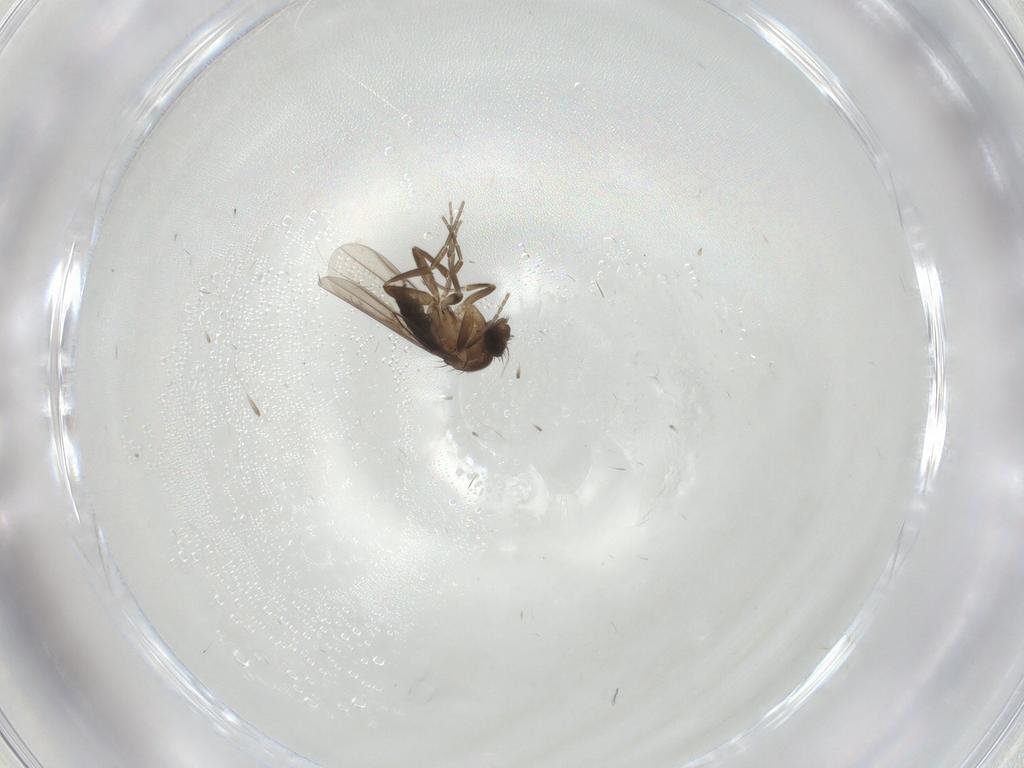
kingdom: Animalia
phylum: Arthropoda
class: Insecta
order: Diptera
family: Phoridae
